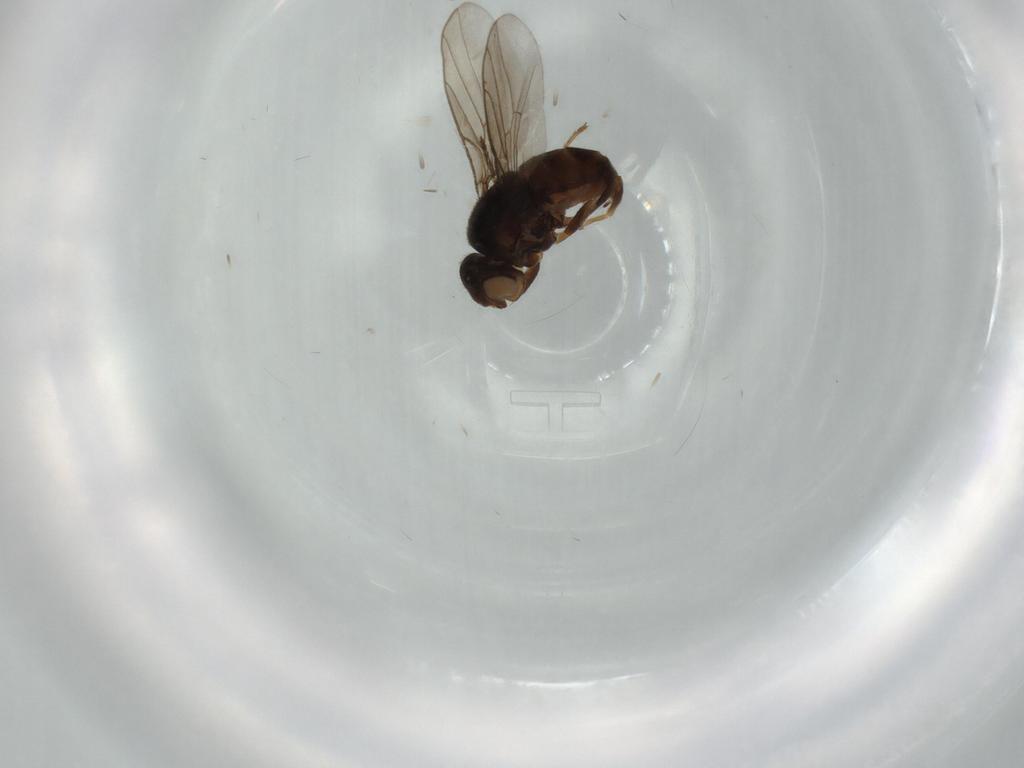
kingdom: Animalia
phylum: Arthropoda
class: Insecta
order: Diptera
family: Chloropidae
